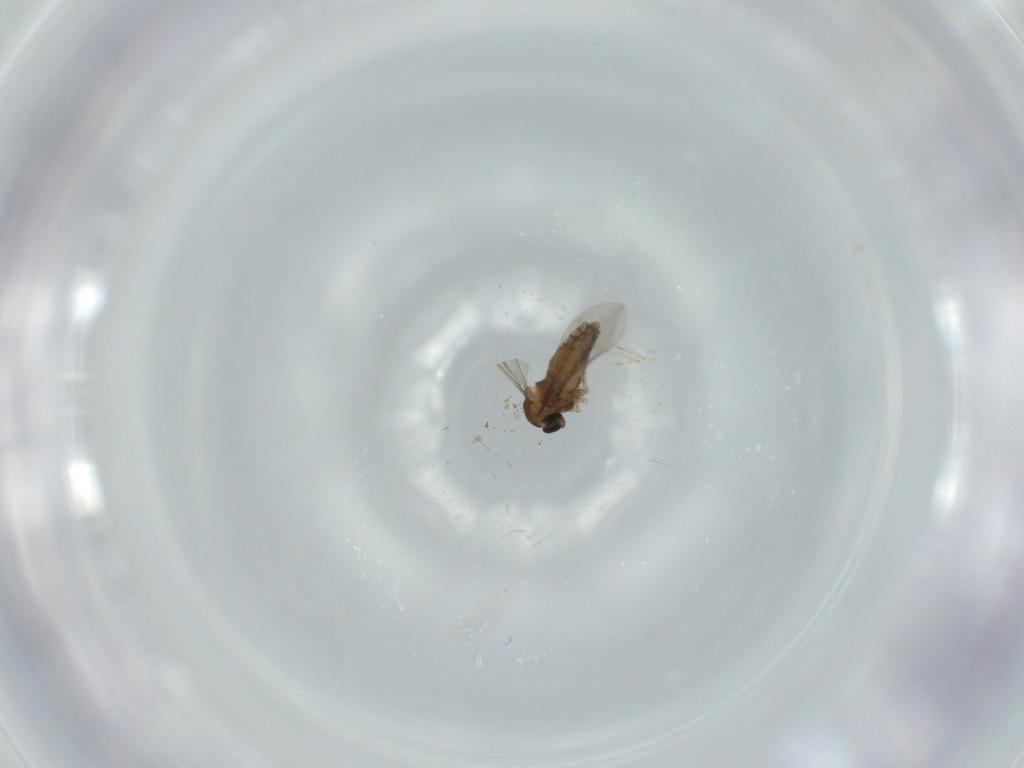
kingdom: Animalia
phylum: Arthropoda
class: Insecta
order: Diptera
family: Cecidomyiidae
